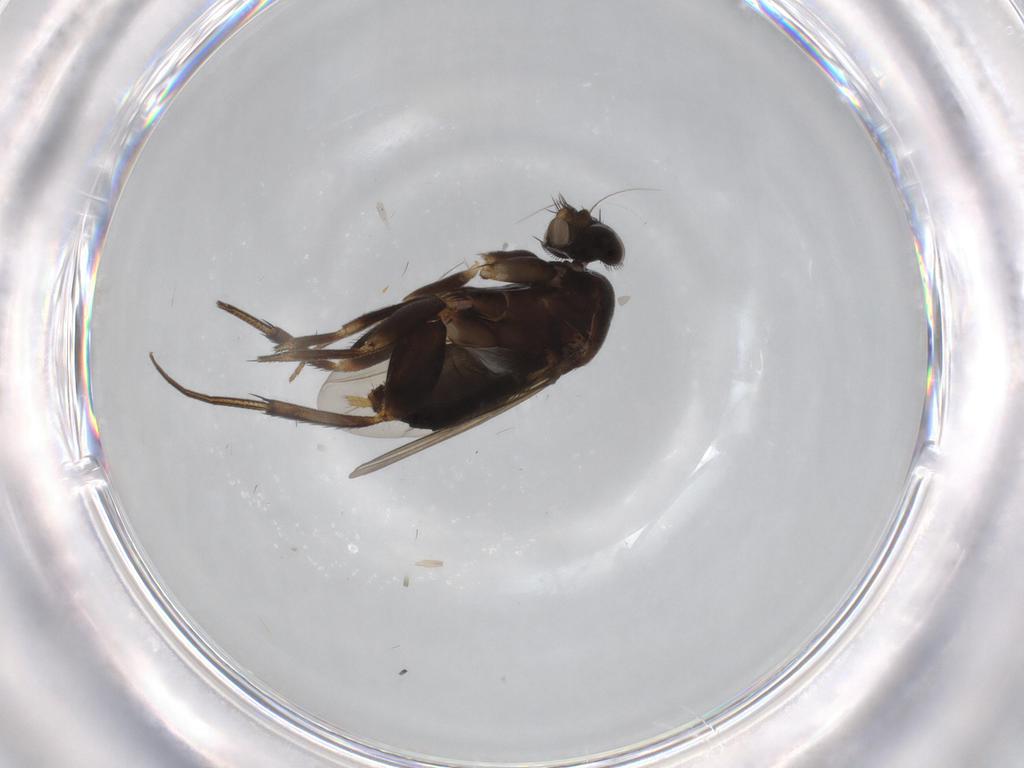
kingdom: Animalia
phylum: Arthropoda
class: Insecta
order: Diptera
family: Phoridae
